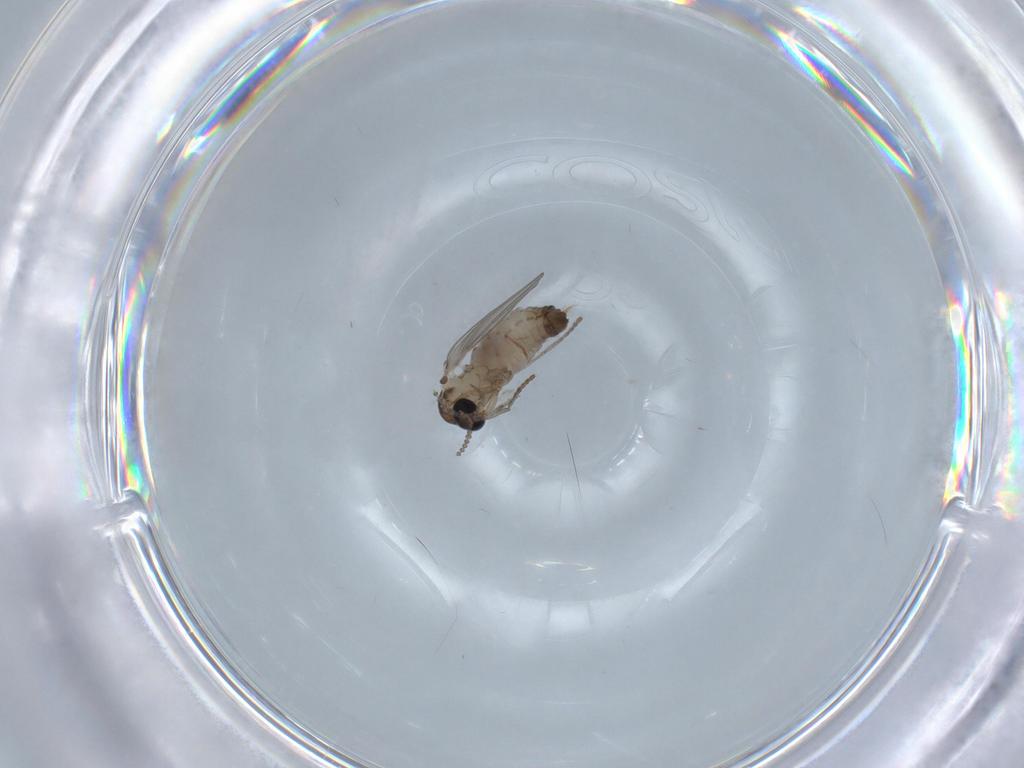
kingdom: Animalia
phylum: Arthropoda
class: Insecta
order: Diptera
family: Psychodidae
